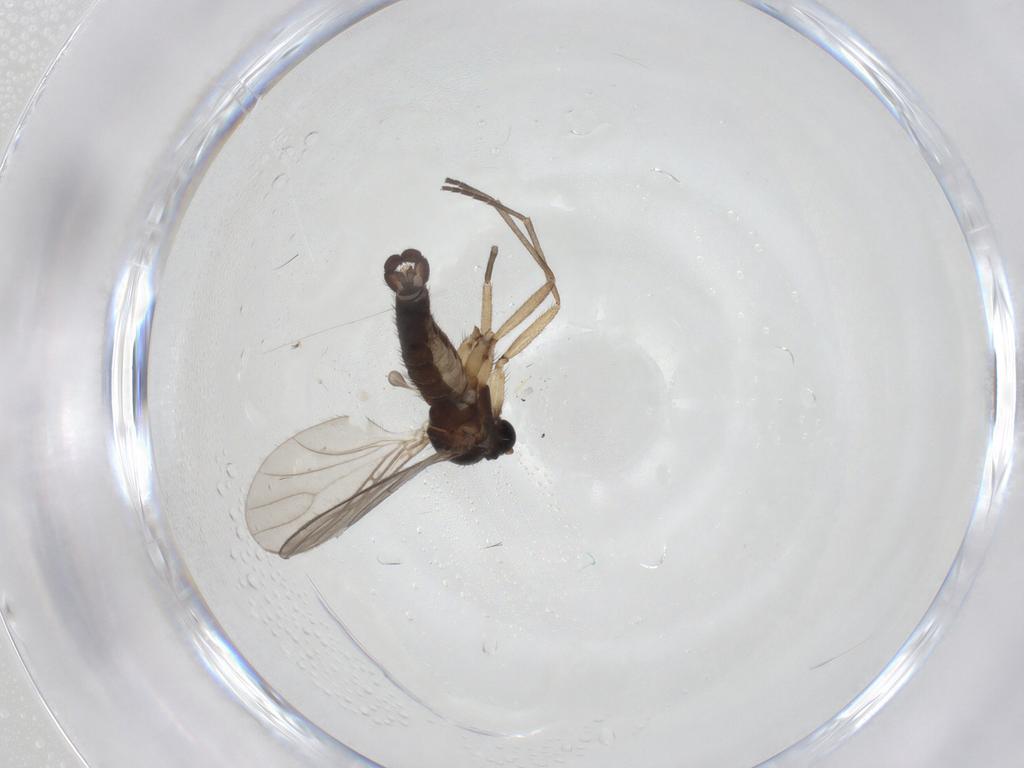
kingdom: Animalia
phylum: Arthropoda
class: Insecta
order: Diptera
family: Sciaridae
